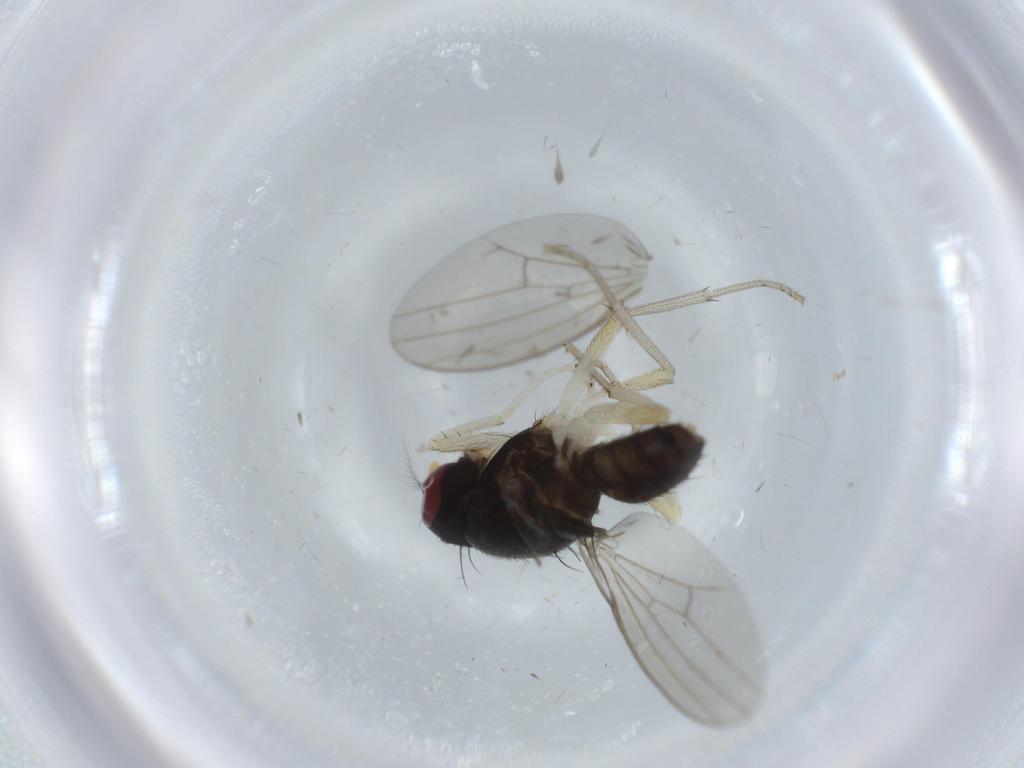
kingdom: Animalia
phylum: Arthropoda
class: Insecta
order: Diptera
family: Syrphidae
